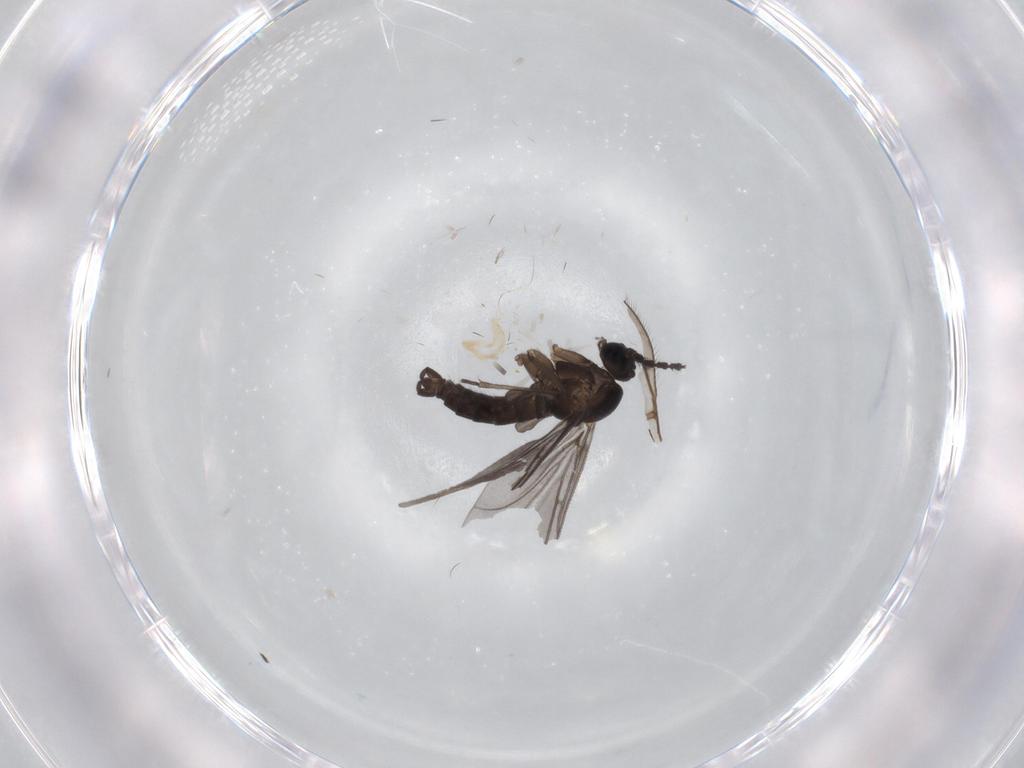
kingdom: Animalia
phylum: Arthropoda
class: Insecta
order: Diptera
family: Sciaridae
